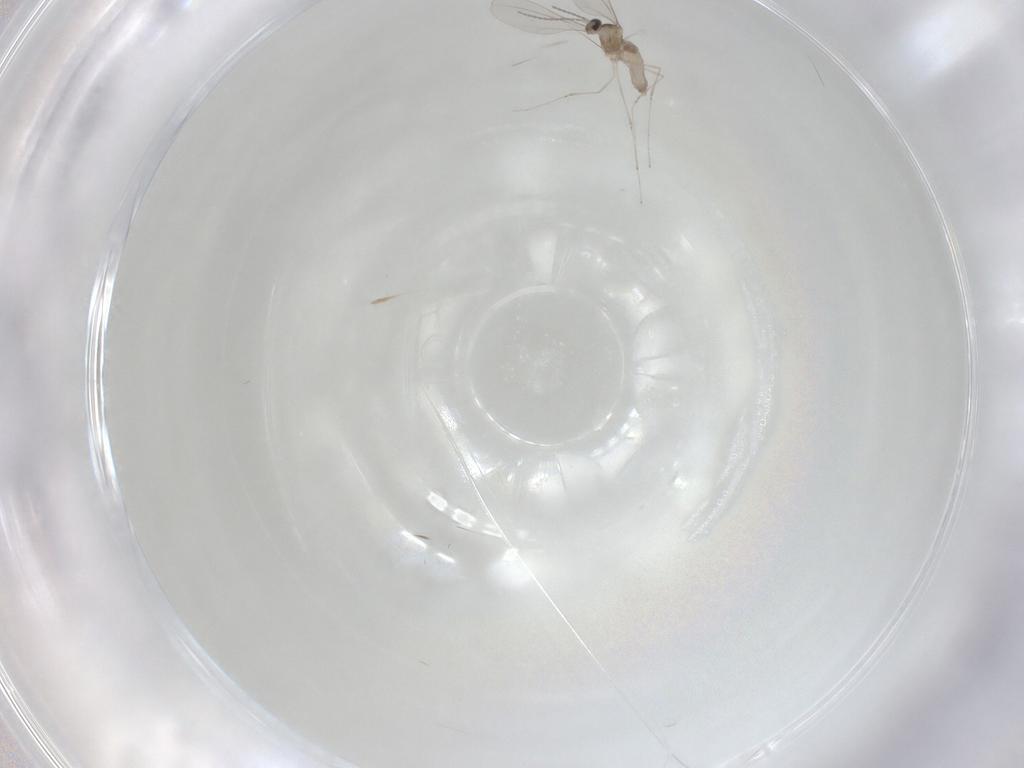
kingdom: Animalia
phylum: Arthropoda
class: Insecta
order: Diptera
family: Cecidomyiidae
